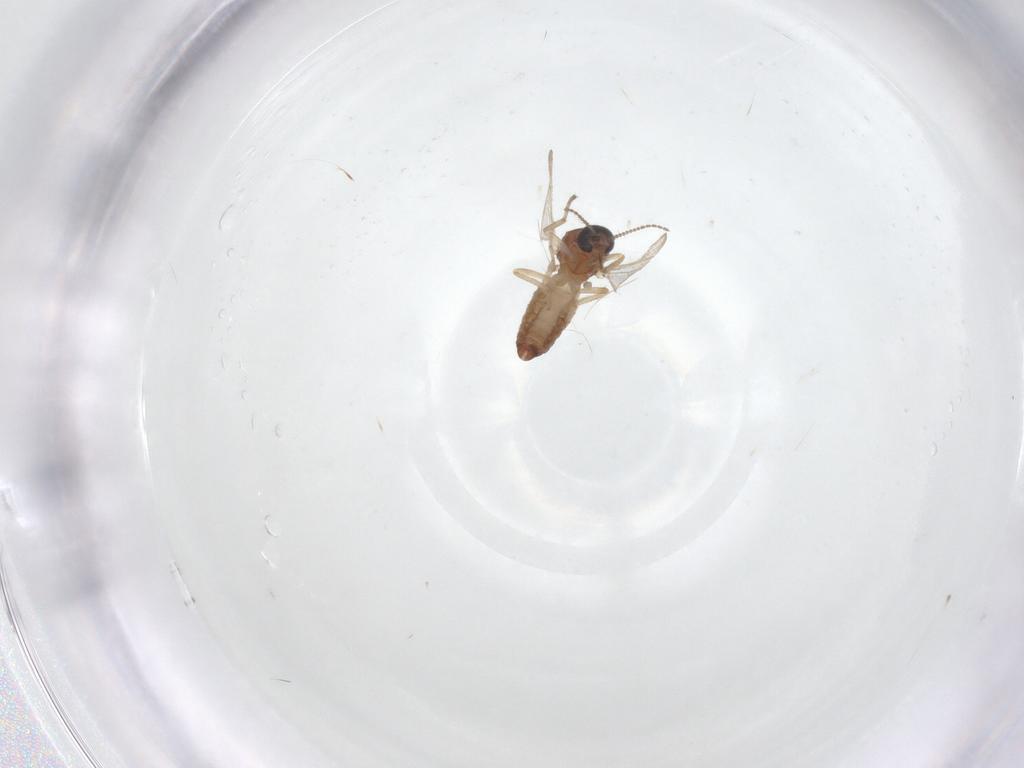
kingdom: Animalia
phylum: Arthropoda
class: Insecta
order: Diptera
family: Ceratopogonidae
